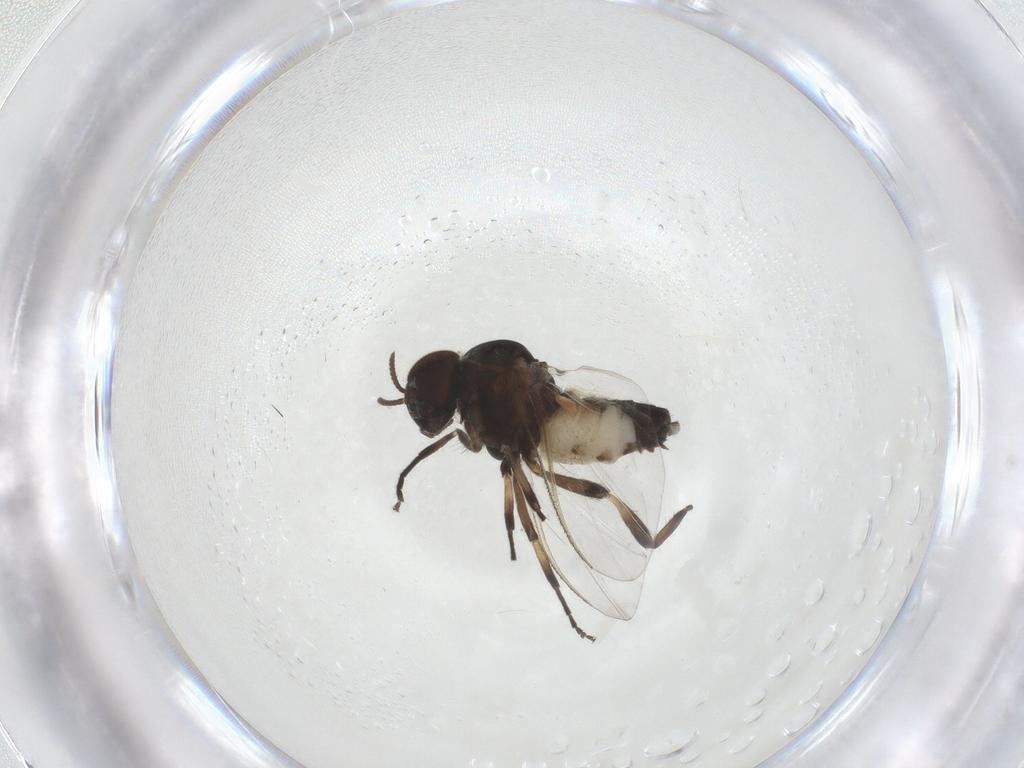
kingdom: Animalia
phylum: Arthropoda
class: Insecta
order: Diptera
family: Simuliidae
